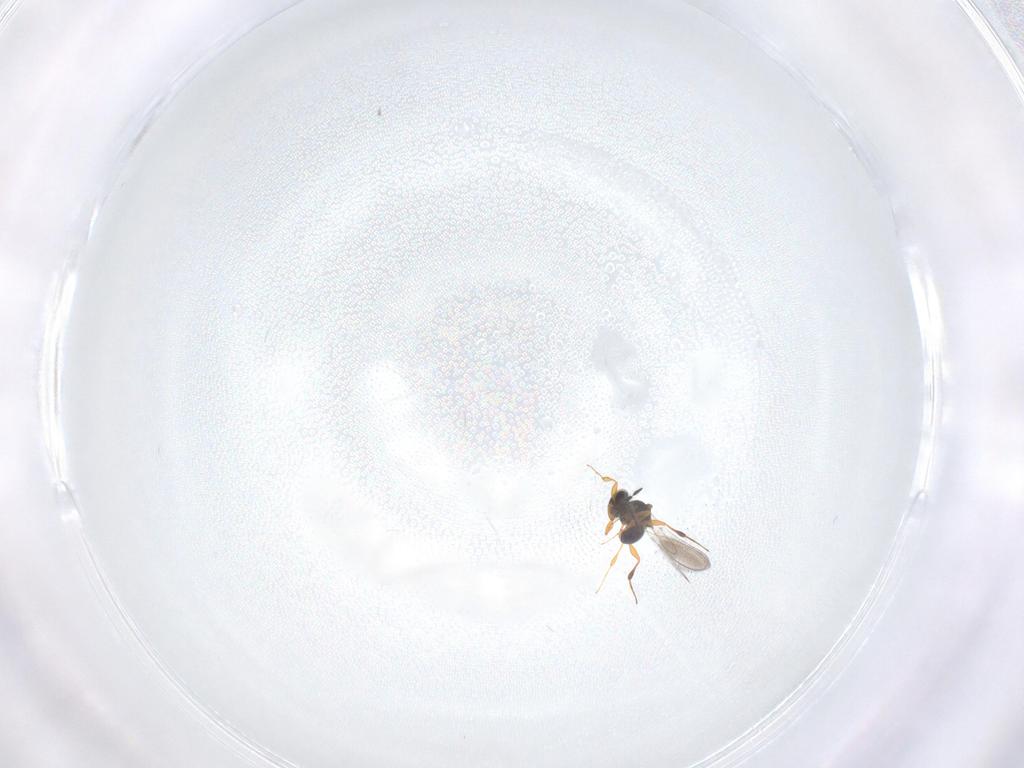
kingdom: Animalia
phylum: Arthropoda
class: Insecta
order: Hymenoptera
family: Platygastridae
